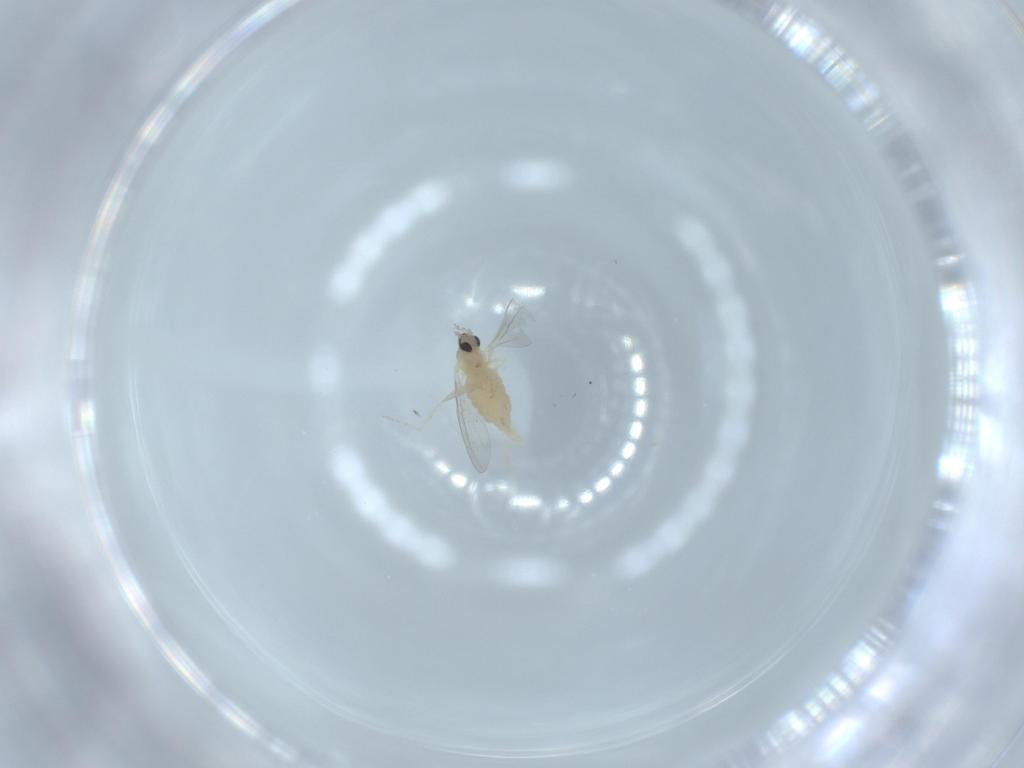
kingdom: Animalia
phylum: Arthropoda
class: Insecta
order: Diptera
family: Cecidomyiidae
